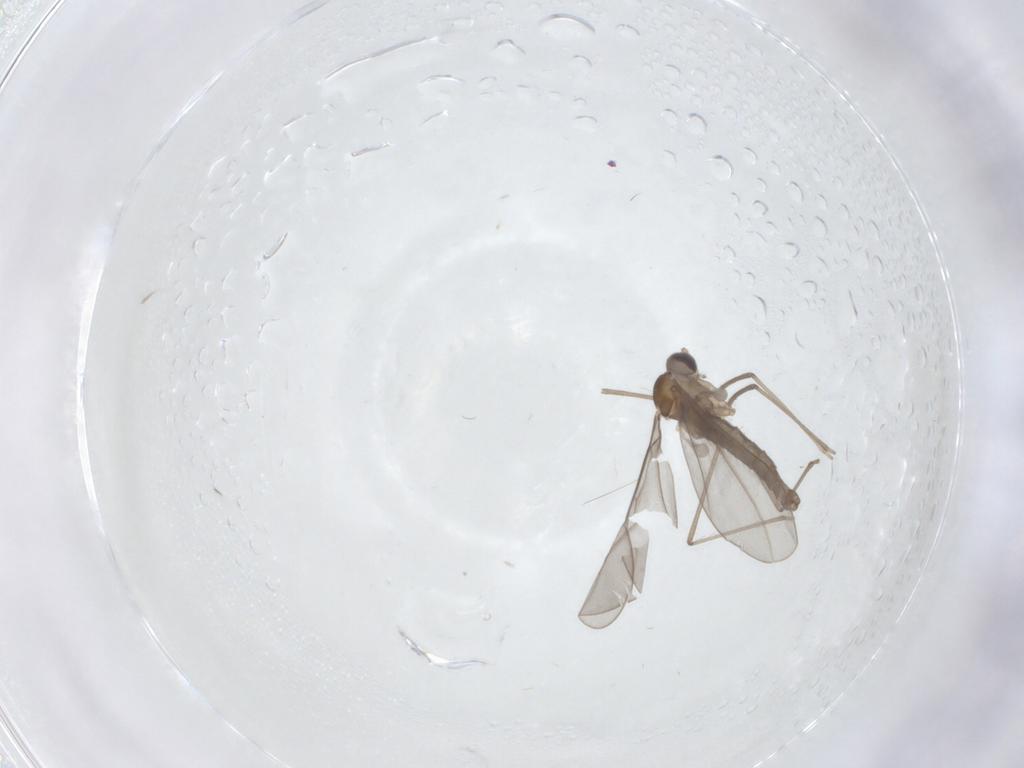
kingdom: Animalia
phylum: Arthropoda
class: Insecta
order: Diptera
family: Cecidomyiidae
